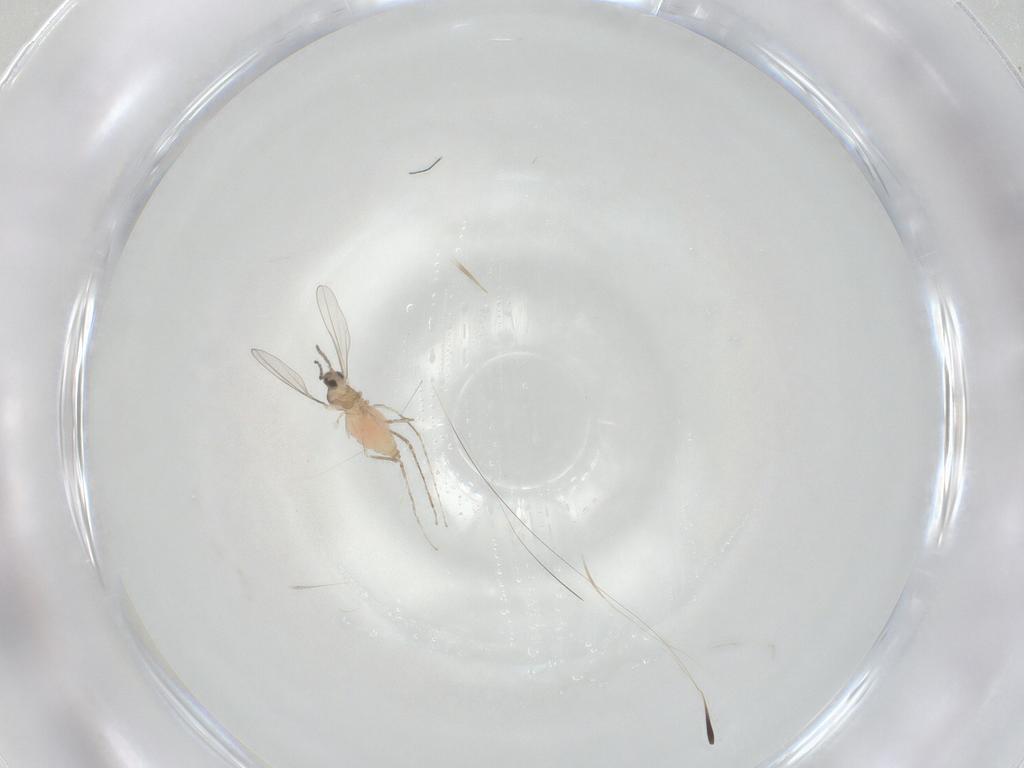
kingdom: Animalia
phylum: Arthropoda
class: Insecta
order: Diptera
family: Cecidomyiidae
